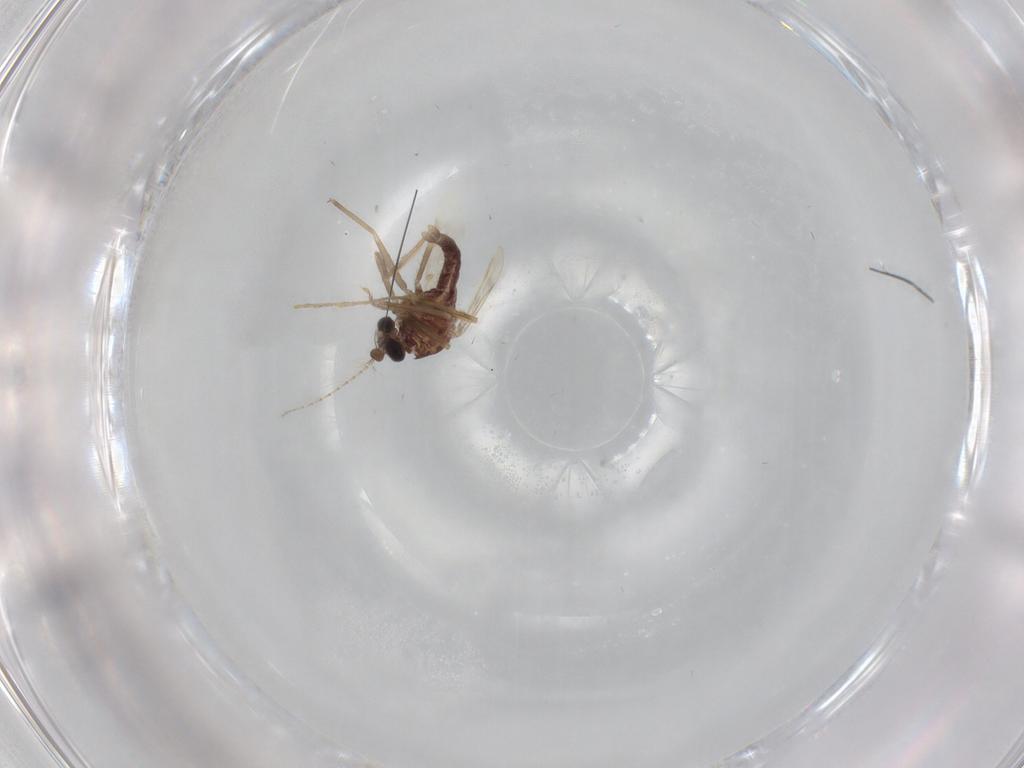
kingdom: Animalia
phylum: Arthropoda
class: Insecta
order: Diptera
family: Corethrellidae
